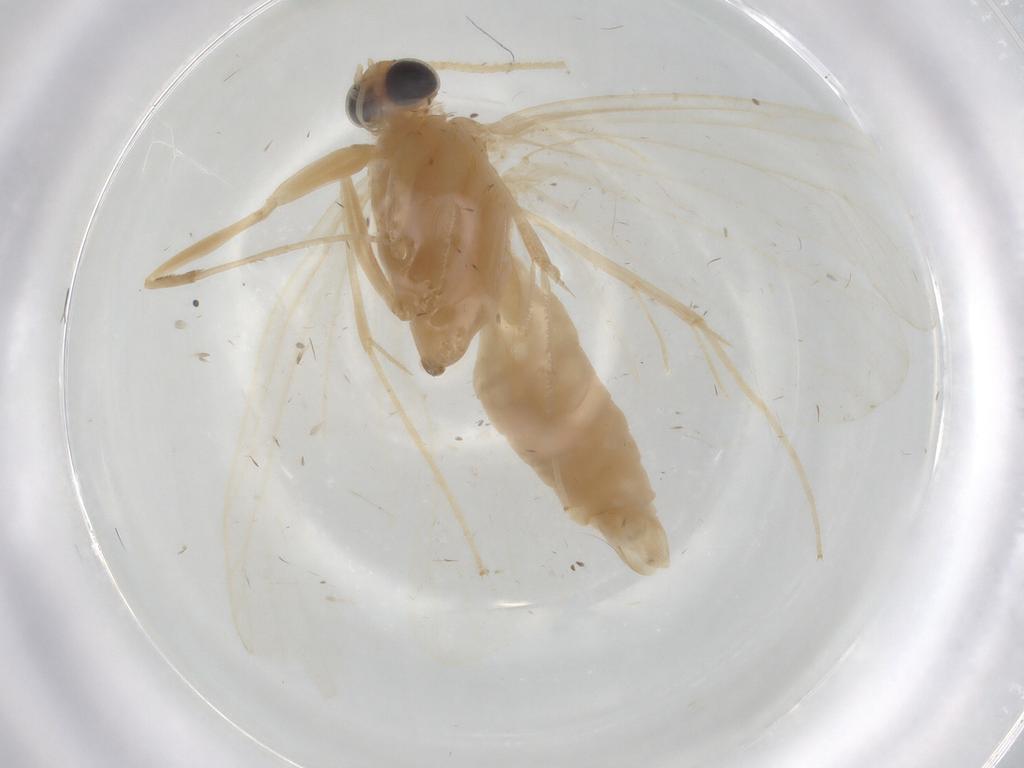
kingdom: Animalia
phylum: Arthropoda
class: Insecta
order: Lepidoptera
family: Crambidae
